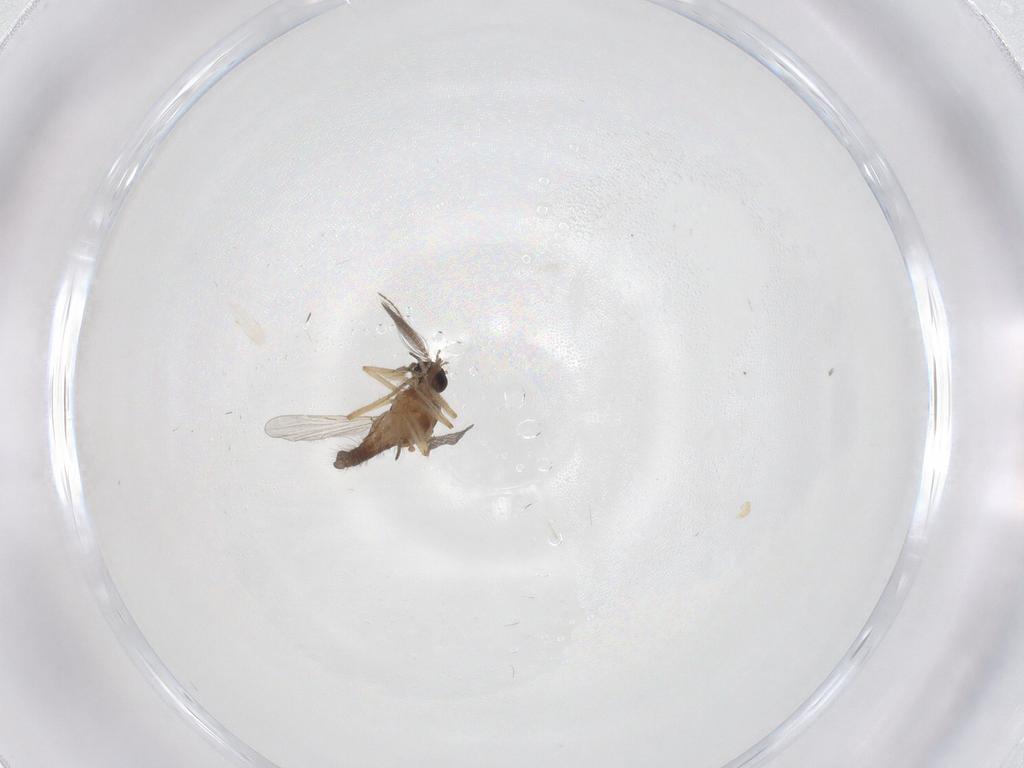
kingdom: Animalia
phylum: Arthropoda
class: Insecta
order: Diptera
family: Ceratopogonidae
